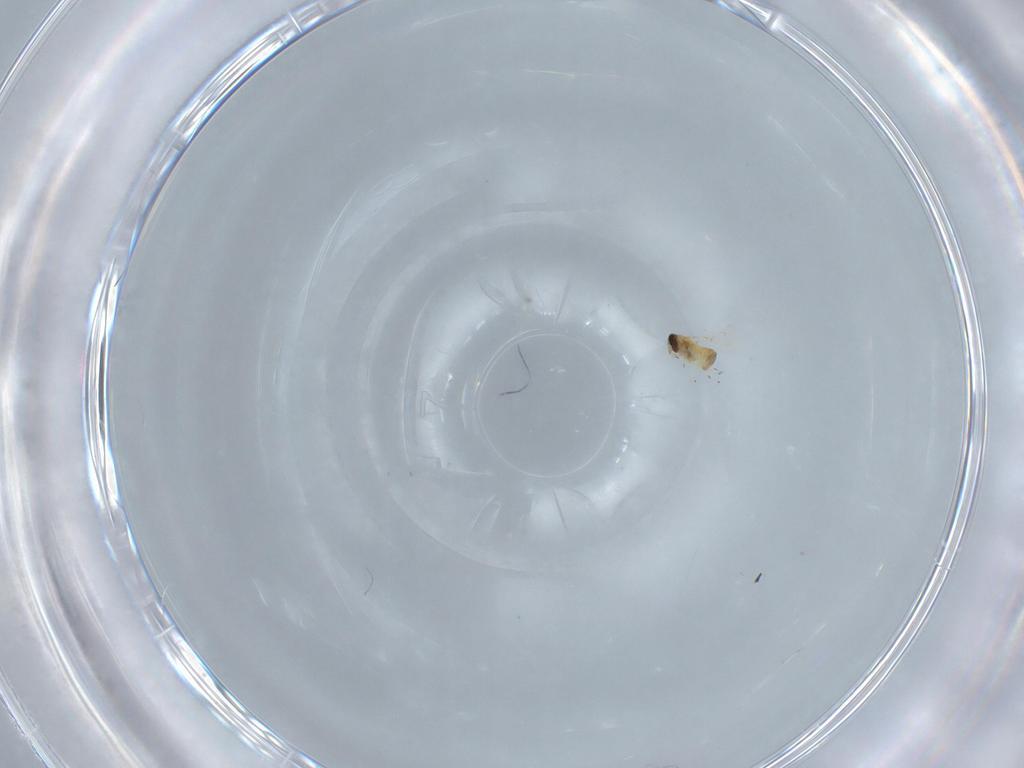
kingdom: Animalia
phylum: Arthropoda
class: Insecta
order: Hymenoptera
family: Trichogrammatidae
